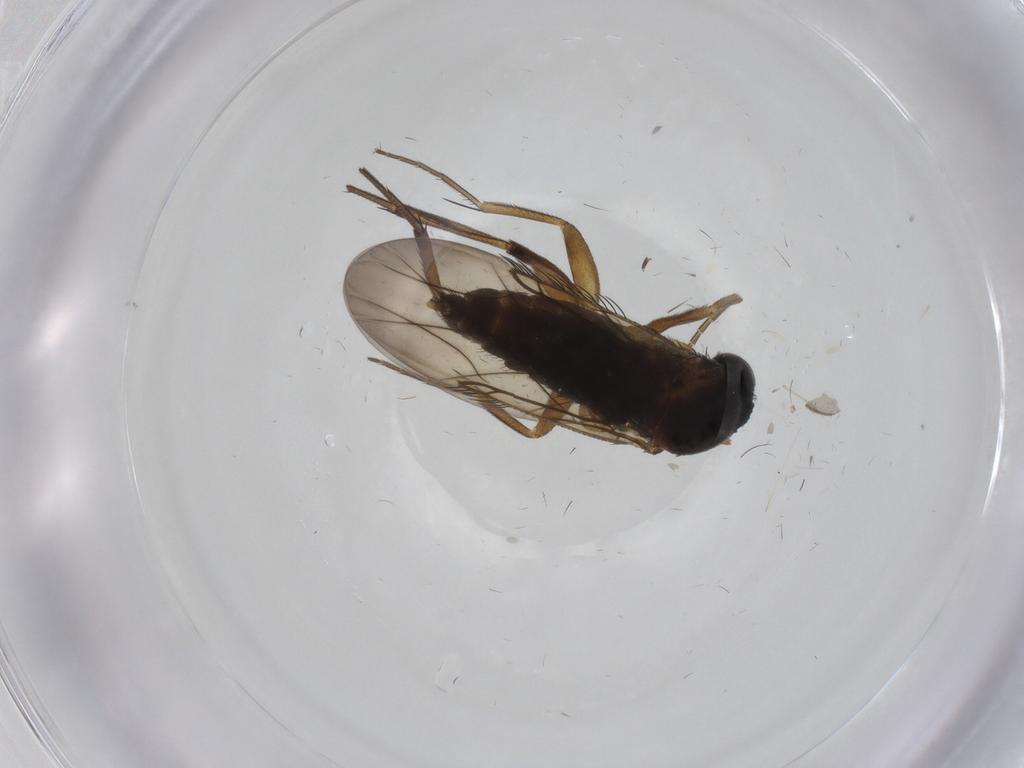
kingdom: Animalia
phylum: Arthropoda
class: Insecta
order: Diptera
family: Phoridae
